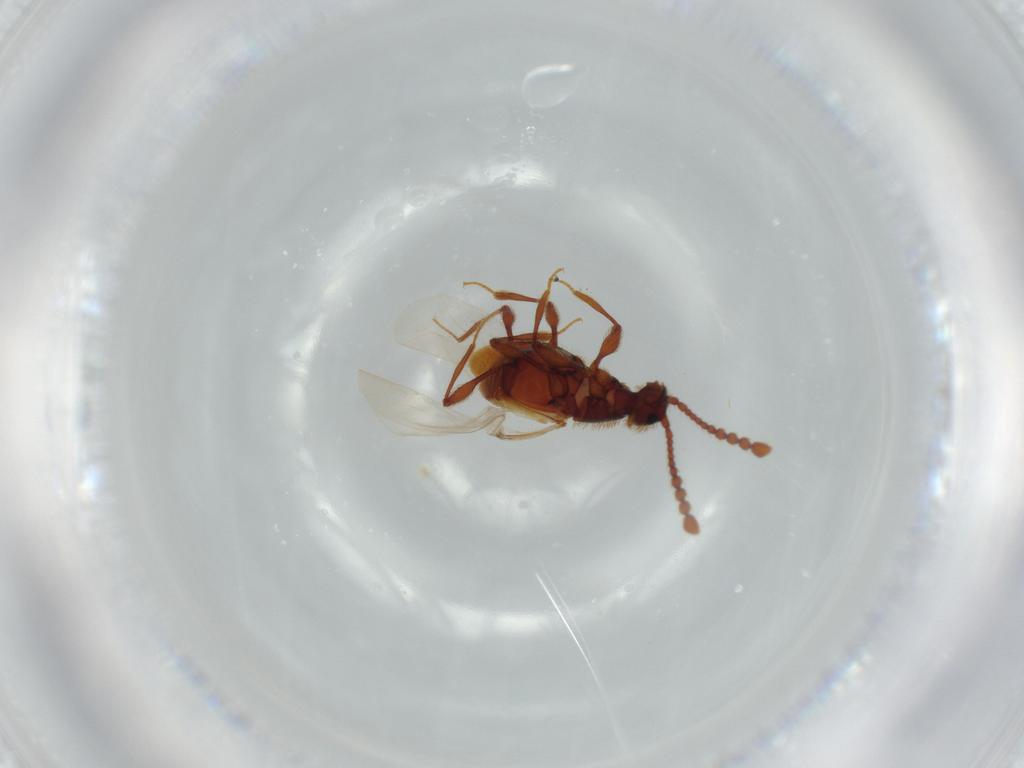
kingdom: Animalia
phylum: Arthropoda
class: Insecta
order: Coleoptera
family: Staphylinidae
